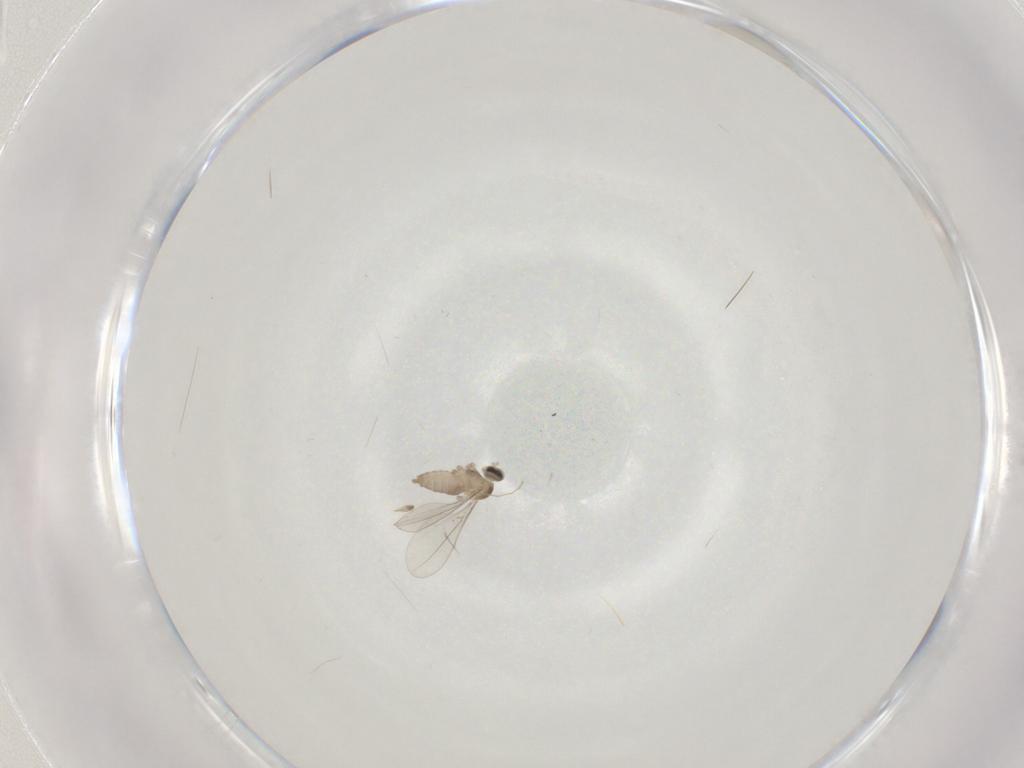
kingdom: Animalia
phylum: Arthropoda
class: Insecta
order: Diptera
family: Cecidomyiidae
